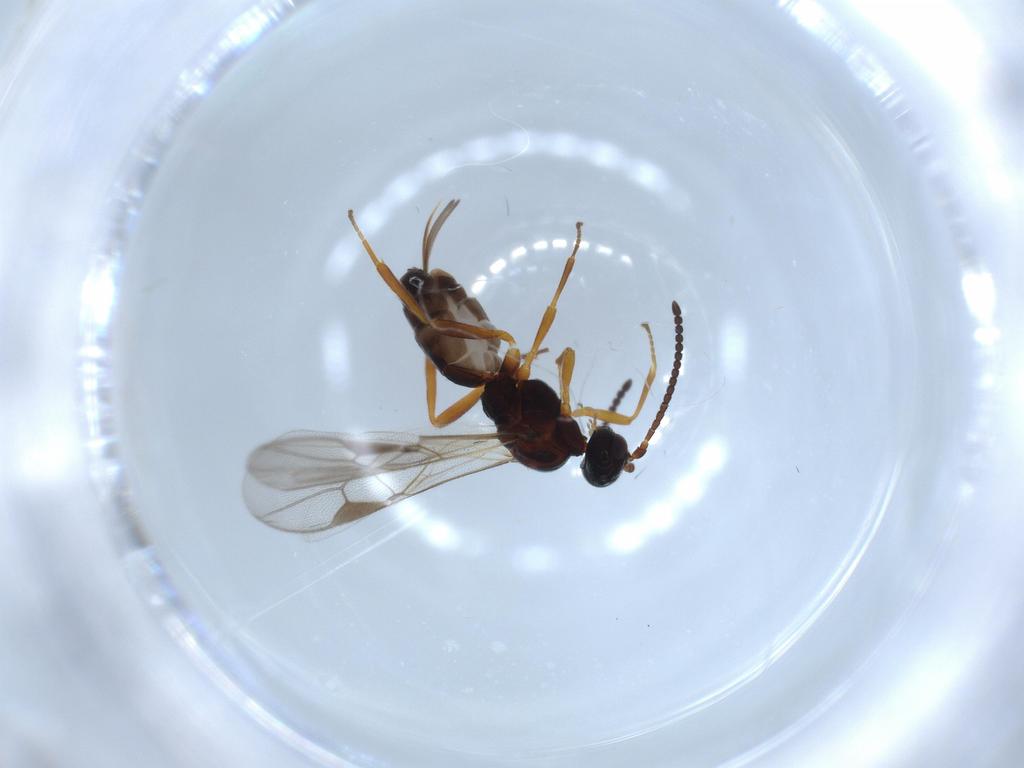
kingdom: Animalia
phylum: Arthropoda
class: Insecta
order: Hymenoptera
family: Braconidae
